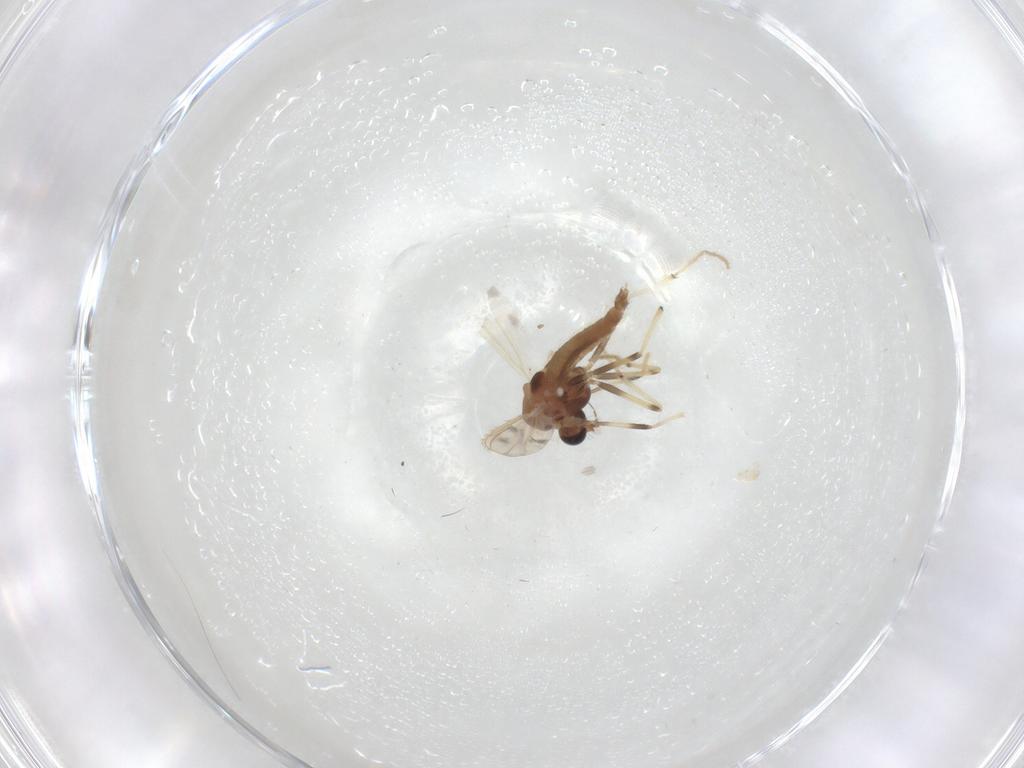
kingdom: Animalia
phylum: Arthropoda
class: Insecta
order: Diptera
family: Chironomidae
